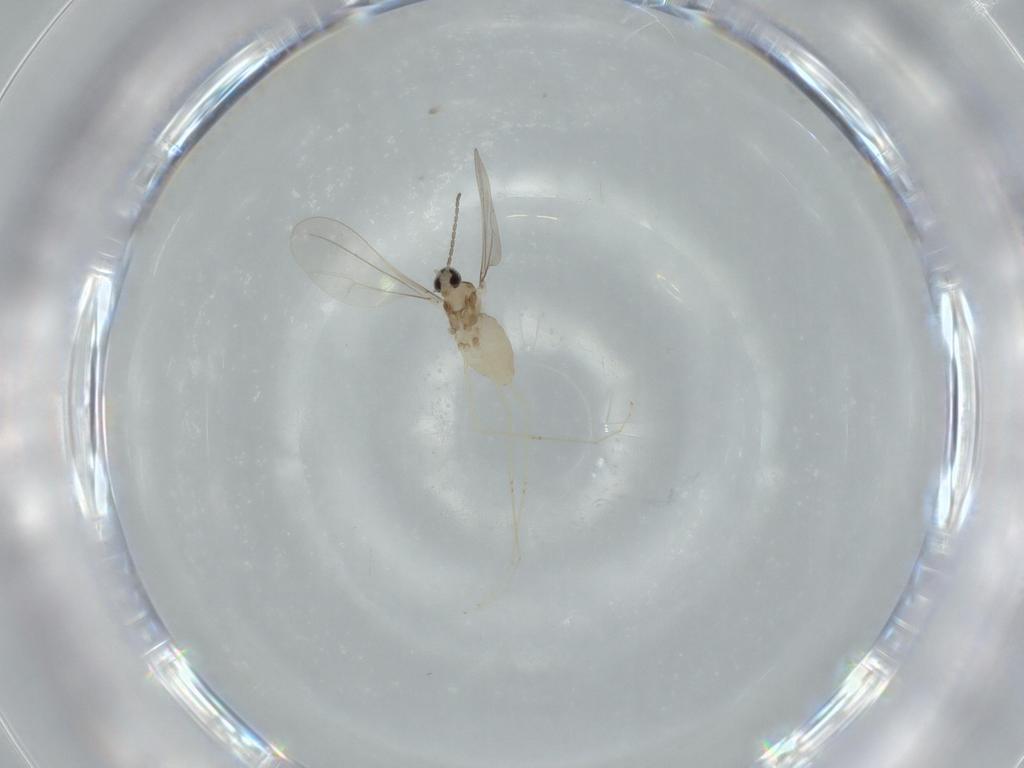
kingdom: Animalia
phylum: Arthropoda
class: Insecta
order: Diptera
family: Cecidomyiidae
